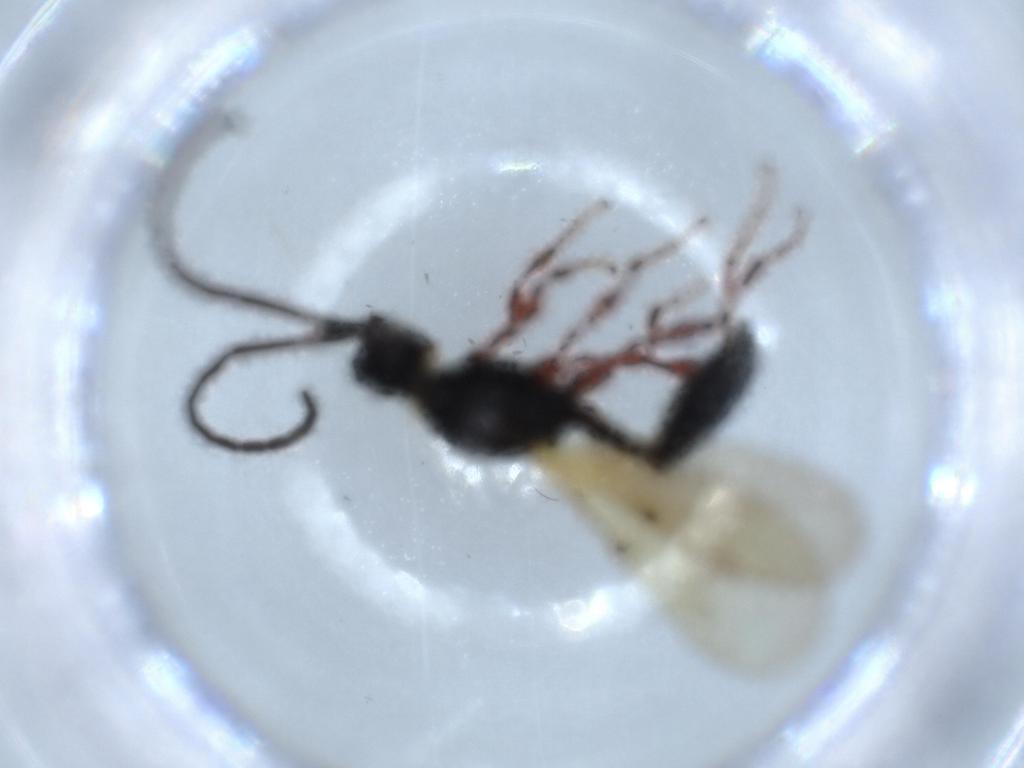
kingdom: Animalia
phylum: Arthropoda
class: Insecta
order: Hymenoptera
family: Diapriidae
